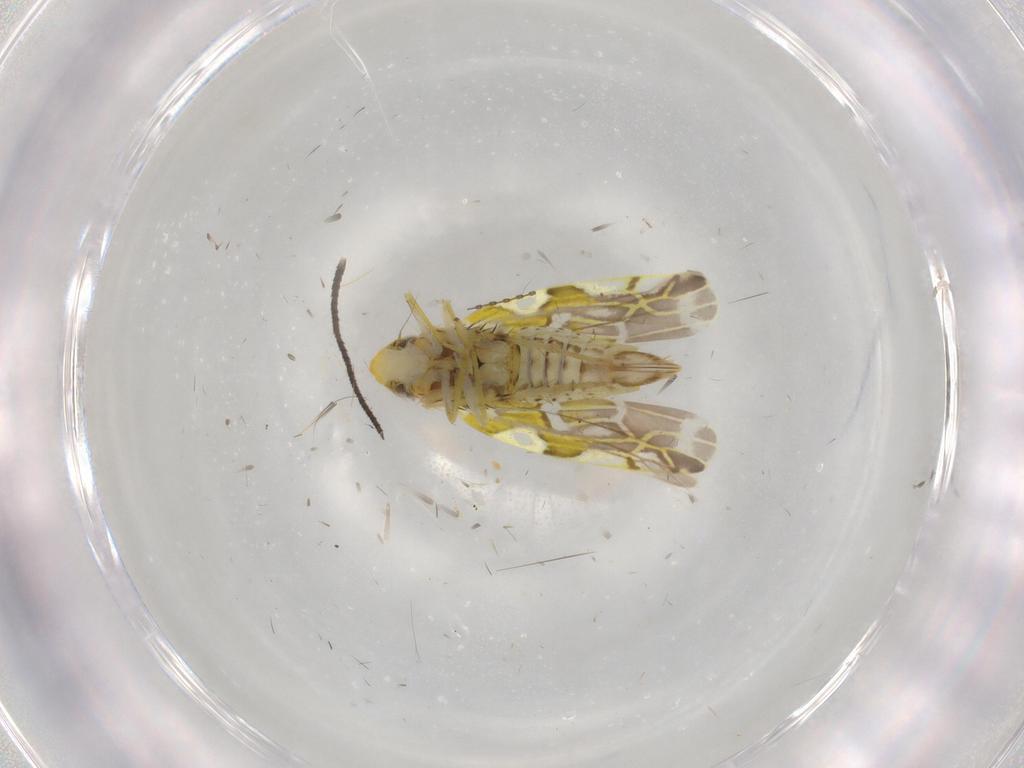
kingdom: Animalia
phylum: Arthropoda
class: Insecta
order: Hemiptera
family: Cicadellidae
